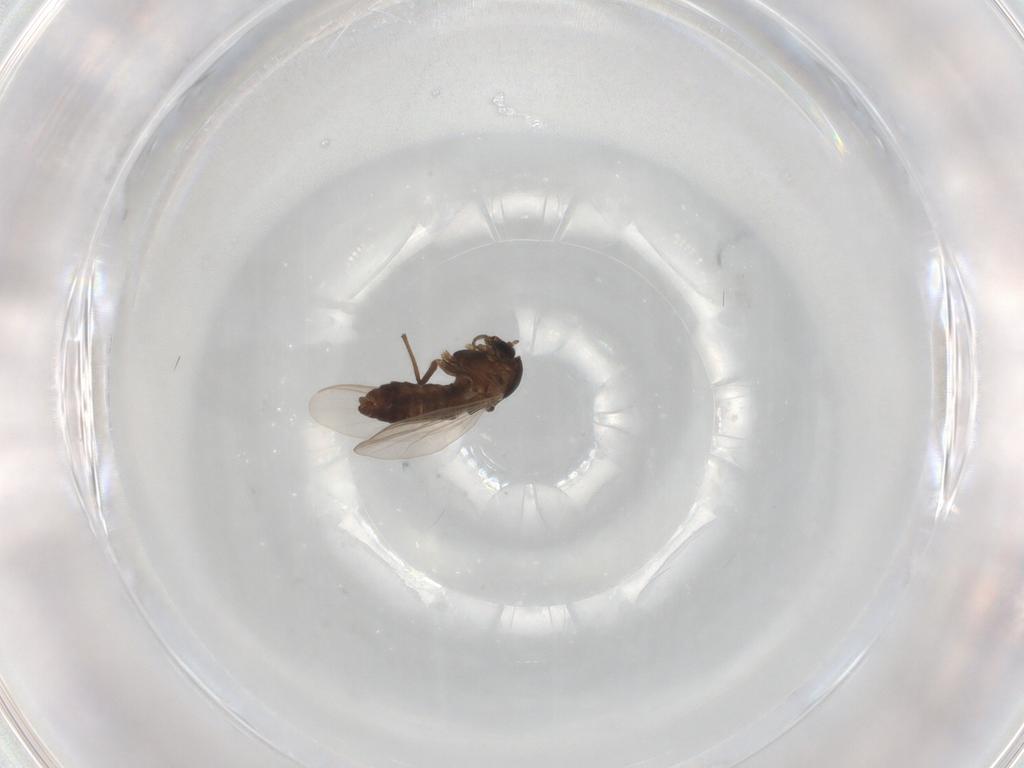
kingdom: Animalia
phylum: Arthropoda
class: Insecta
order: Diptera
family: Chironomidae
